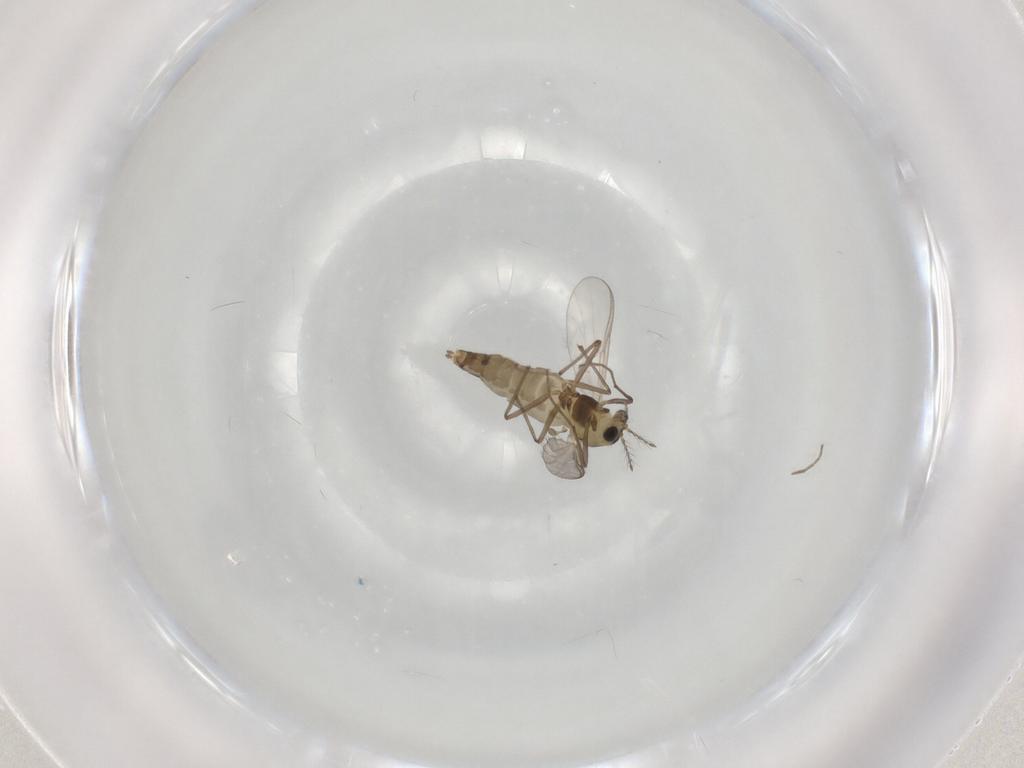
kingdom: Animalia
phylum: Arthropoda
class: Insecta
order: Diptera
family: Chironomidae
